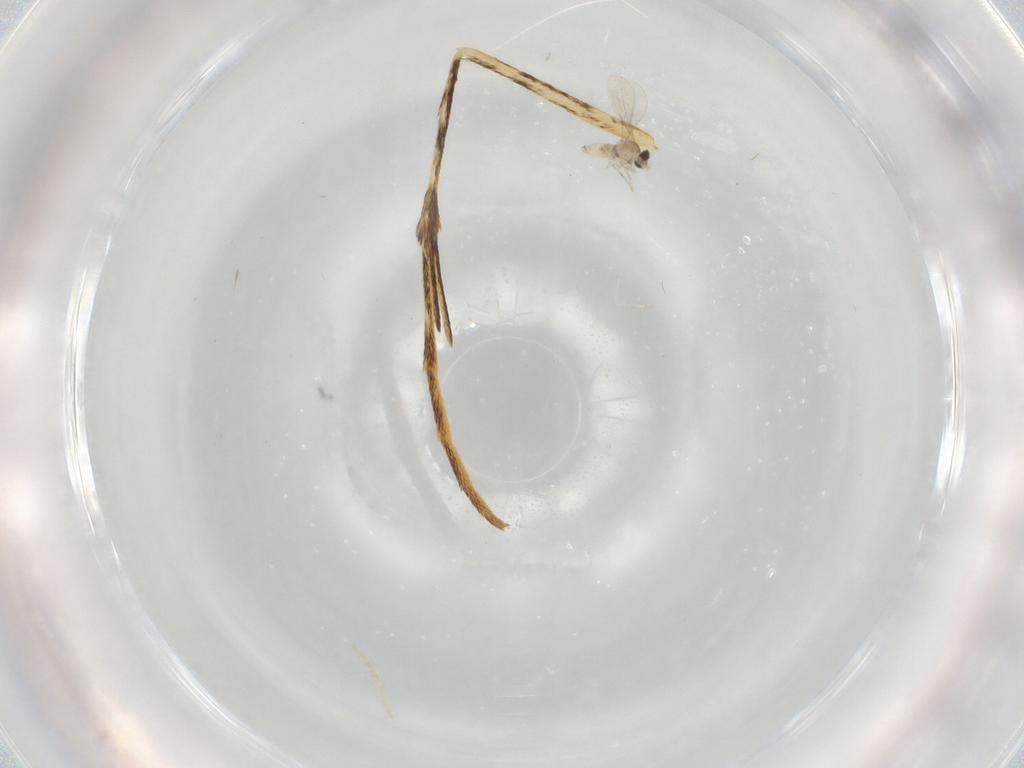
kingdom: Animalia
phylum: Arthropoda
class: Insecta
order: Diptera
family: Cecidomyiidae
